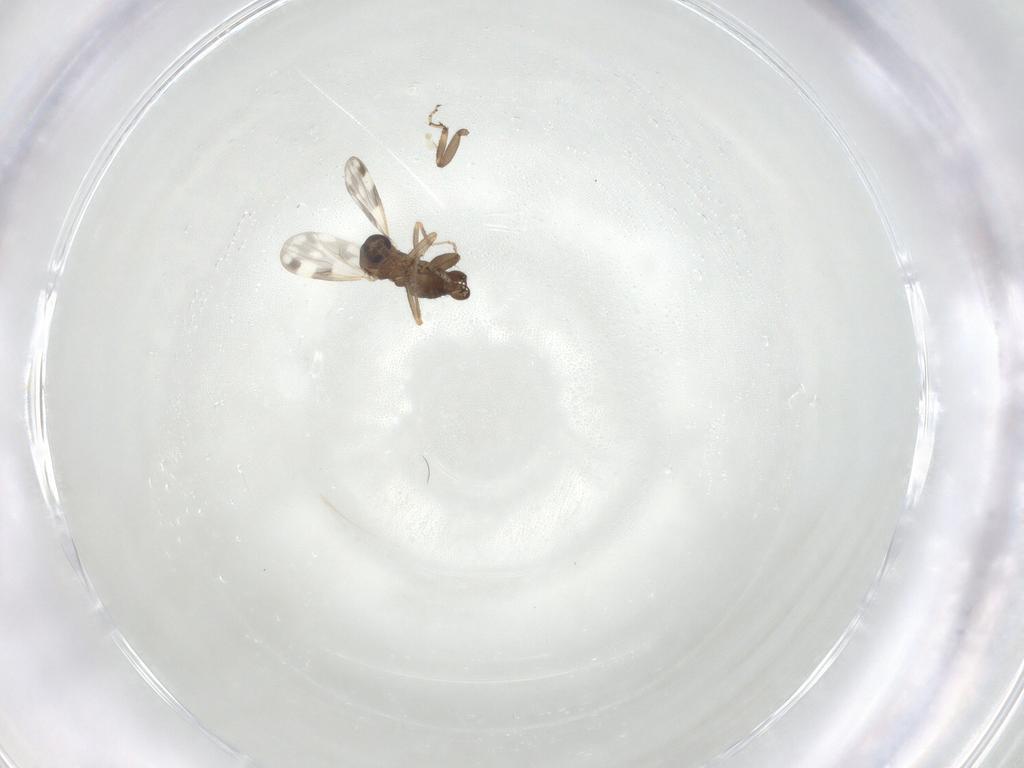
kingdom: Animalia
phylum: Arthropoda
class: Insecta
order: Diptera
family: Ceratopogonidae
